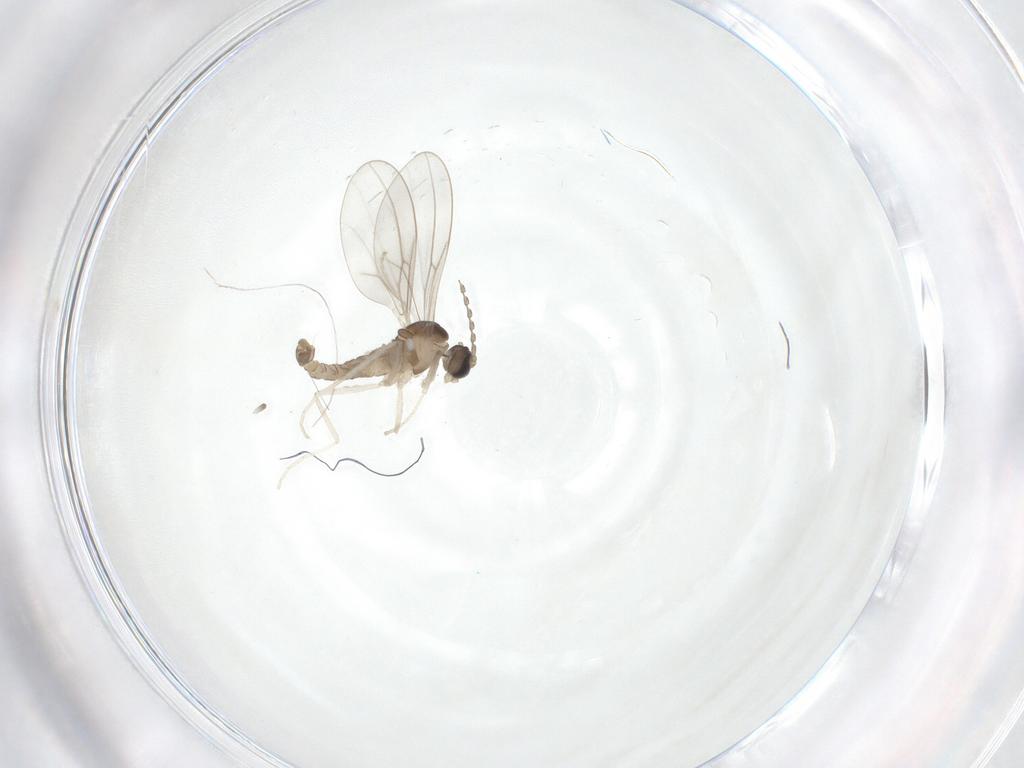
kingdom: Animalia
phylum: Arthropoda
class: Insecta
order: Diptera
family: Cecidomyiidae
